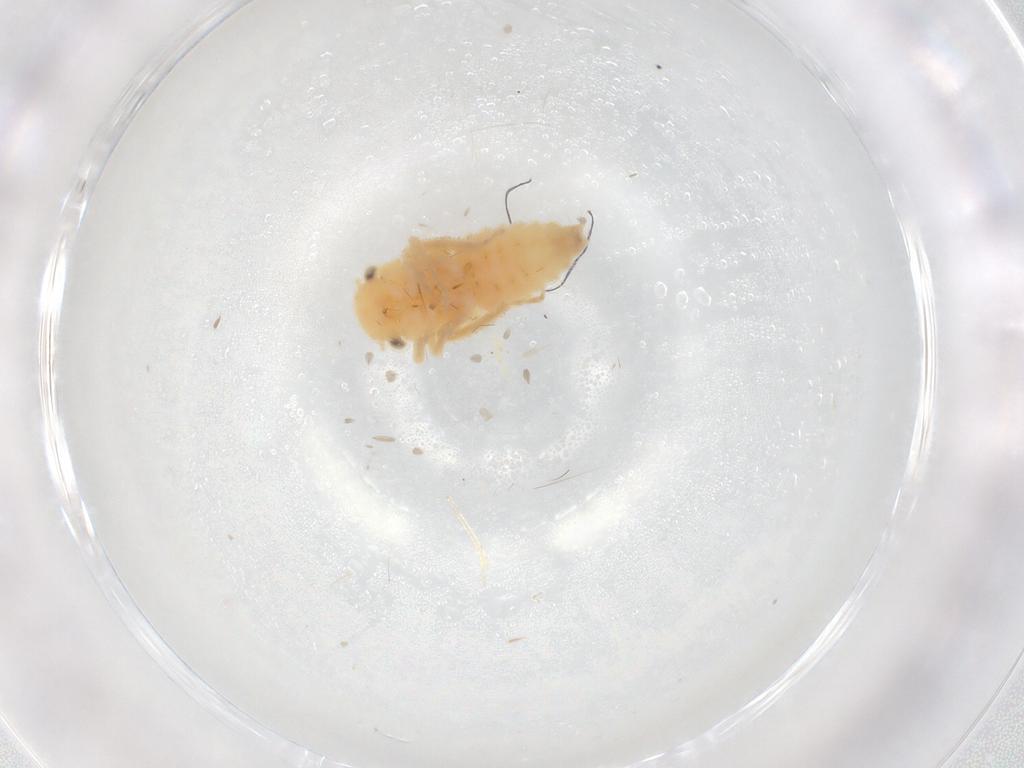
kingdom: Animalia
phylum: Arthropoda
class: Insecta
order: Hemiptera
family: Cicadellidae
